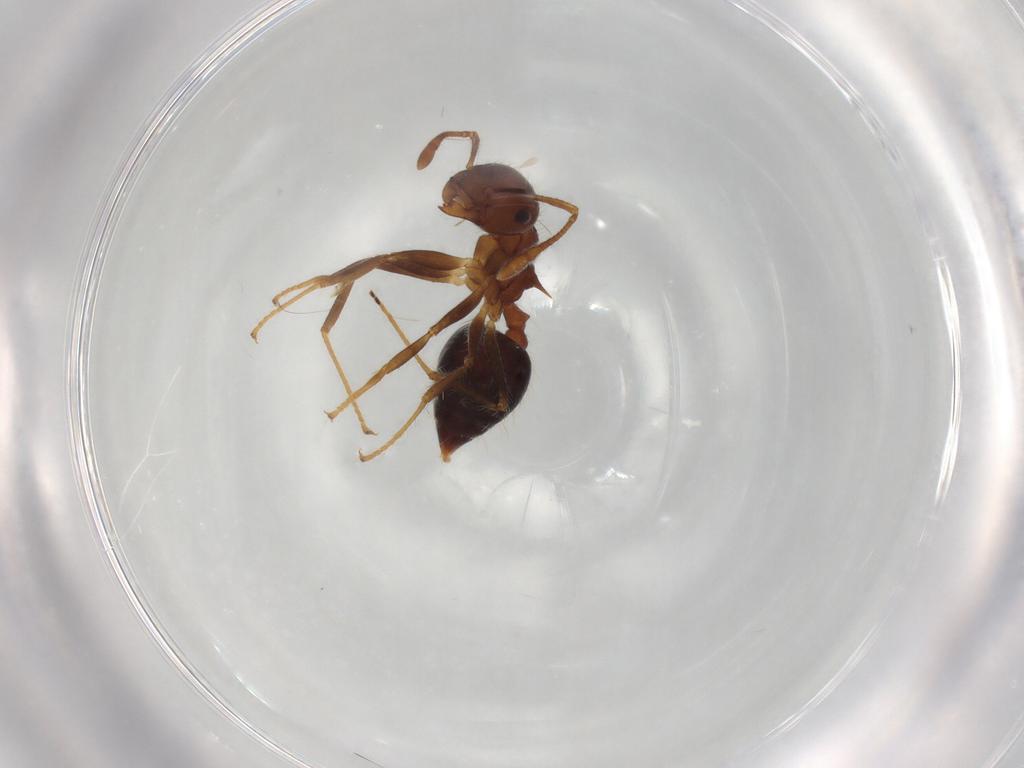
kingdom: Animalia
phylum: Arthropoda
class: Insecta
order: Hymenoptera
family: Formicidae
